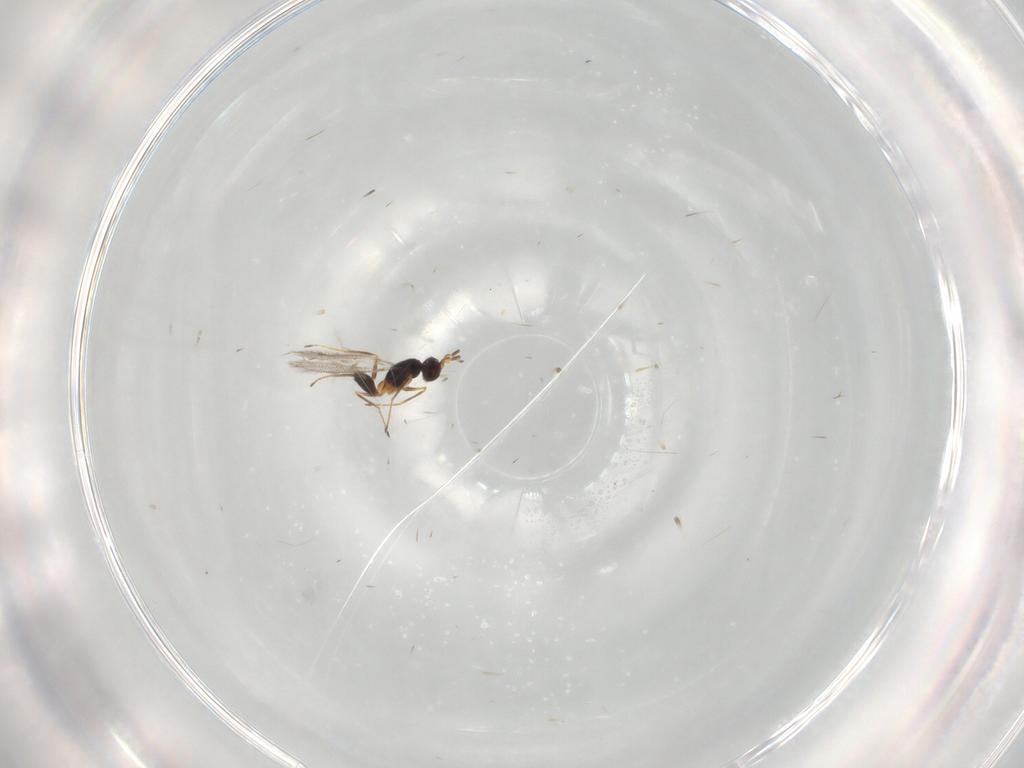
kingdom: Animalia
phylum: Arthropoda
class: Insecta
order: Hymenoptera
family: Mymaridae
